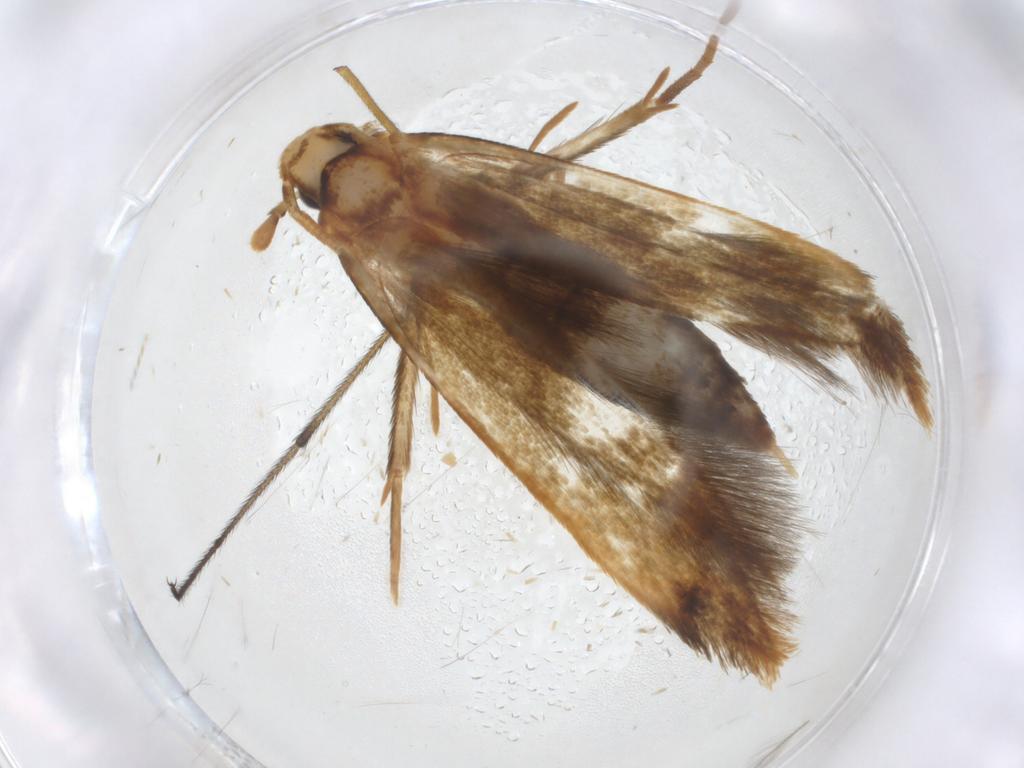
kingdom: Animalia
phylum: Arthropoda
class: Insecta
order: Lepidoptera
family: Tineidae
